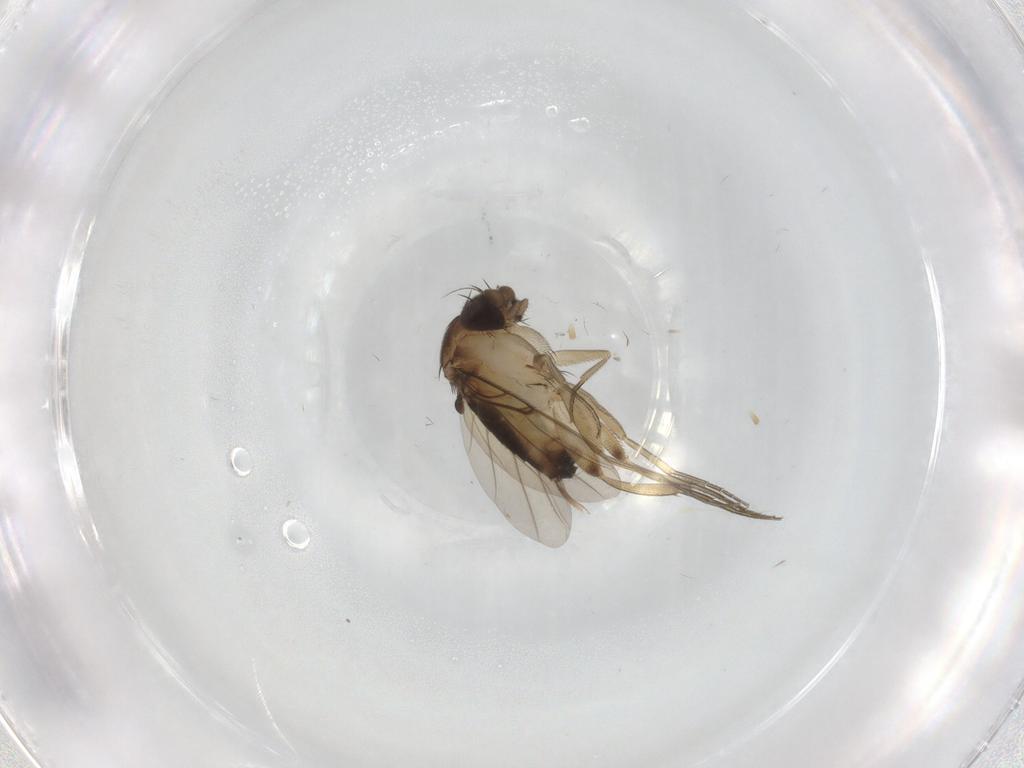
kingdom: Animalia
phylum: Arthropoda
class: Insecta
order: Diptera
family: Cecidomyiidae
